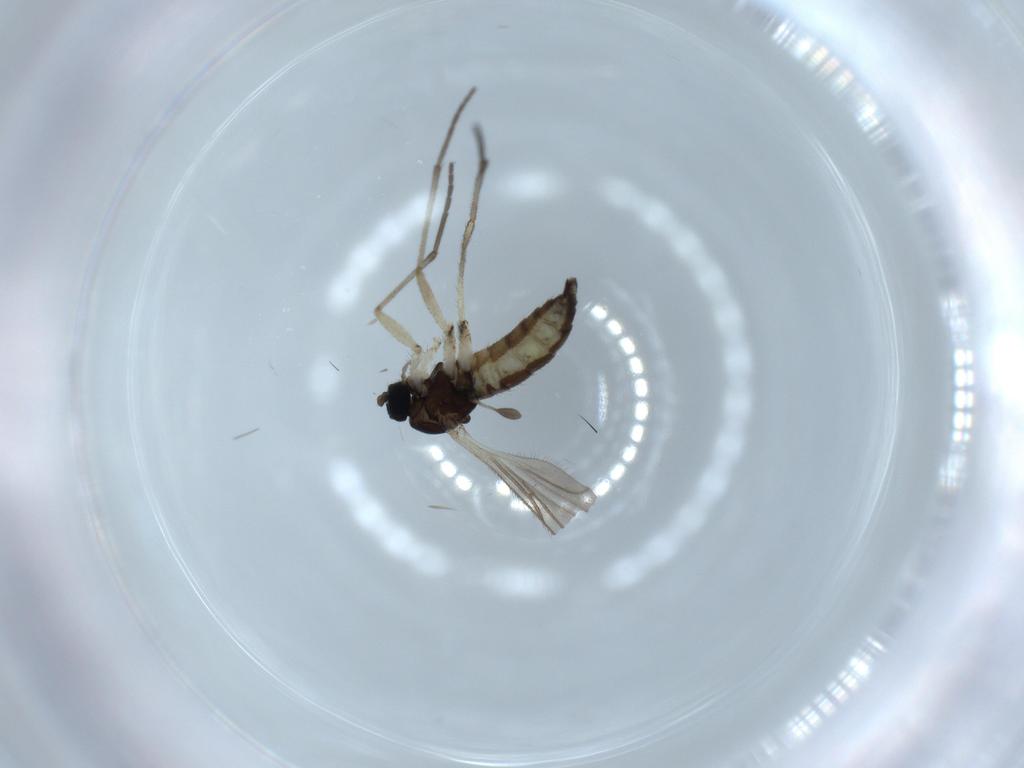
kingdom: Animalia
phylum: Arthropoda
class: Insecta
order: Diptera
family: Sciaridae
